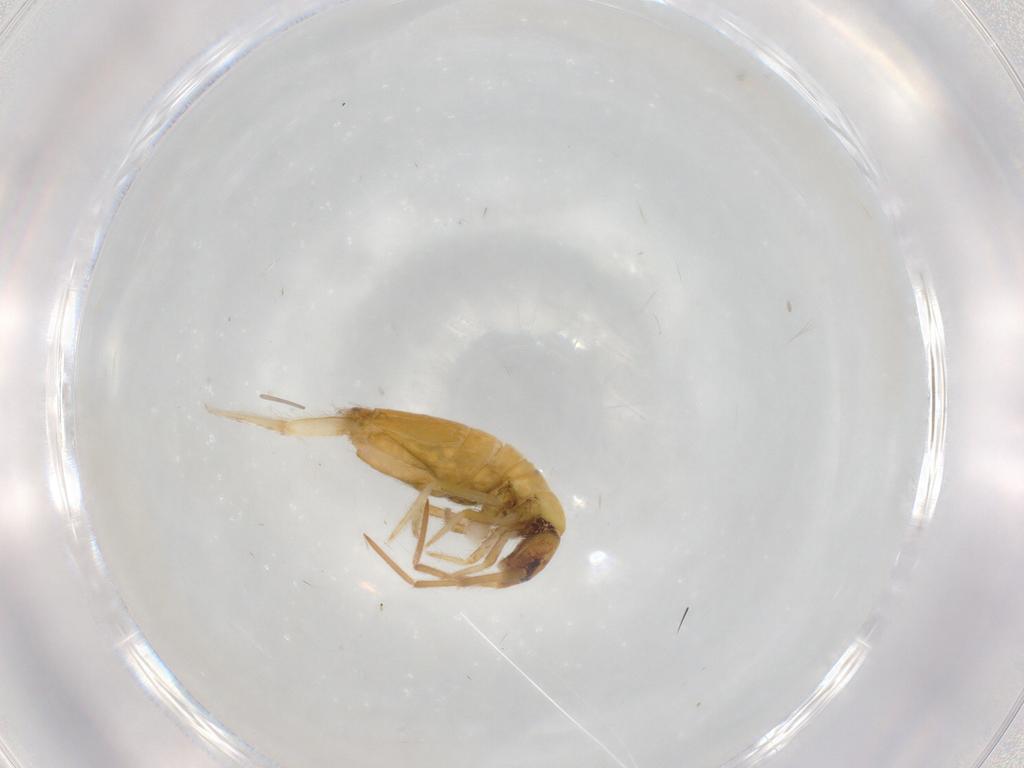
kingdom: Animalia
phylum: Arthropoda
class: Collembola
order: Entomobryomorpha
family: Entomobryidae
